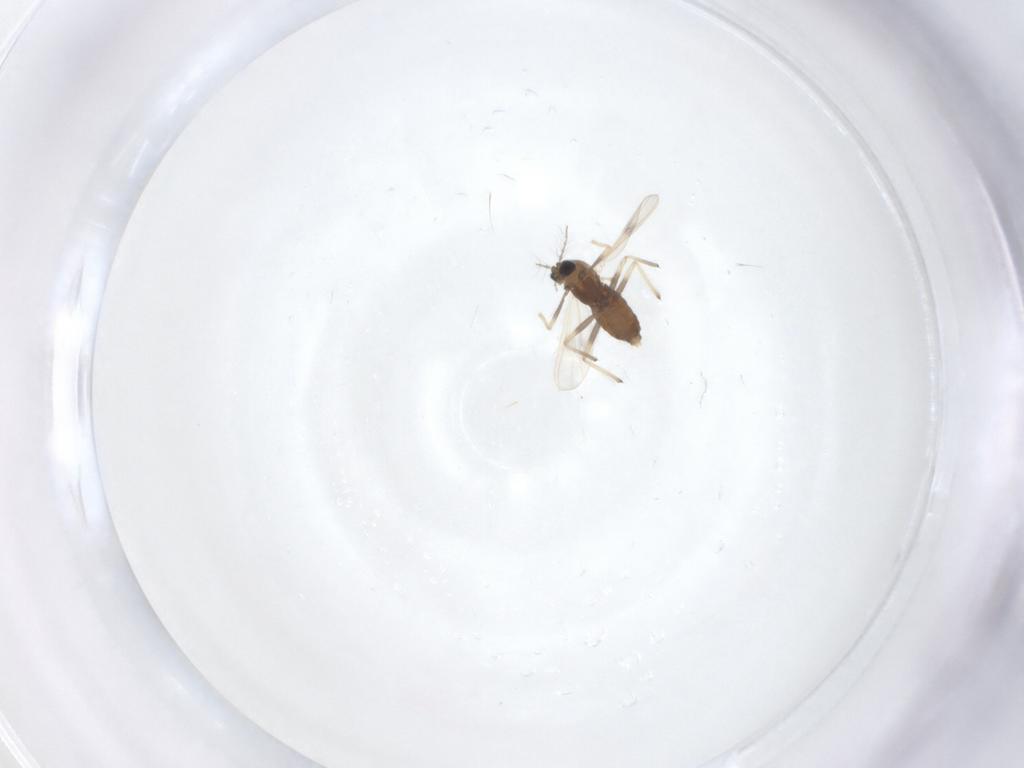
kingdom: Animalia
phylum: Arthropoda
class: Insecta
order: Diptera
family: Chironomidae
